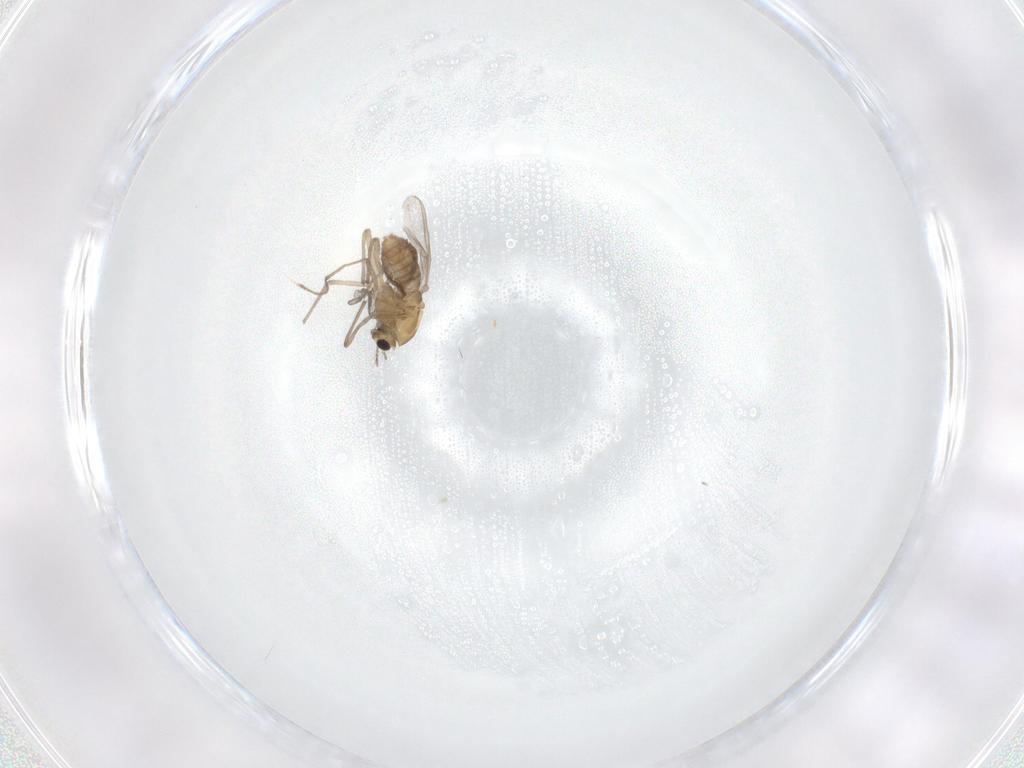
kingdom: Animalia
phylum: Arthropoda
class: Insecta
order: Diptera
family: Chironomidae
